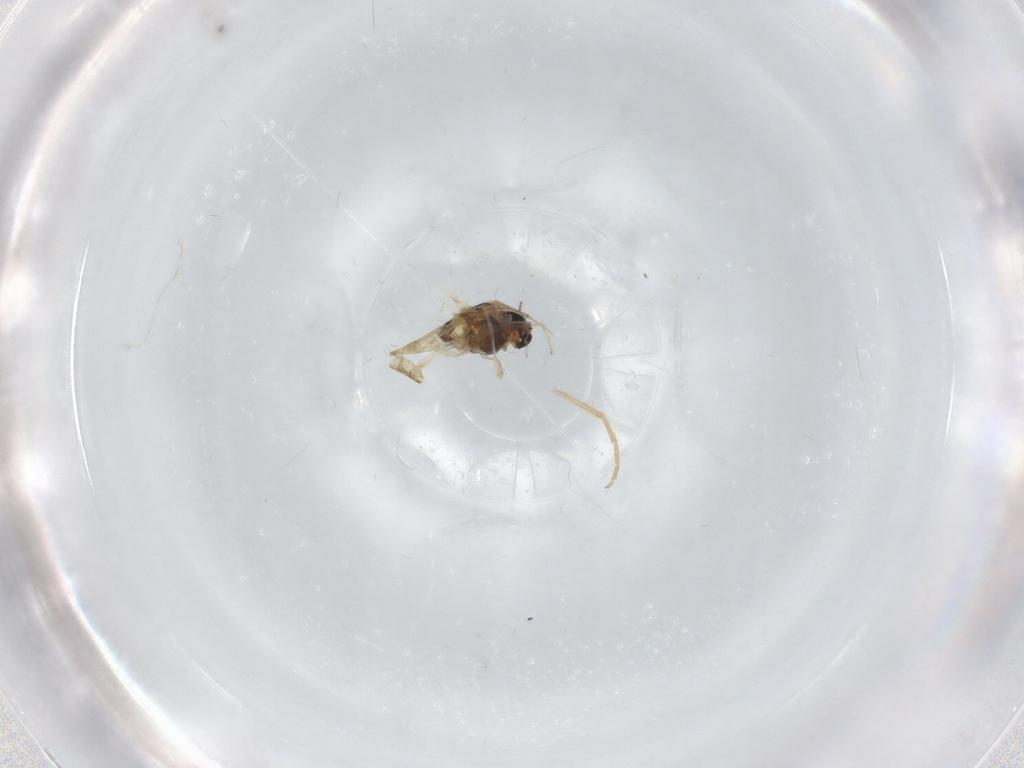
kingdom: Animalia
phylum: Arthropoda
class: Insecta
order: Diptera
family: Chironomidae
